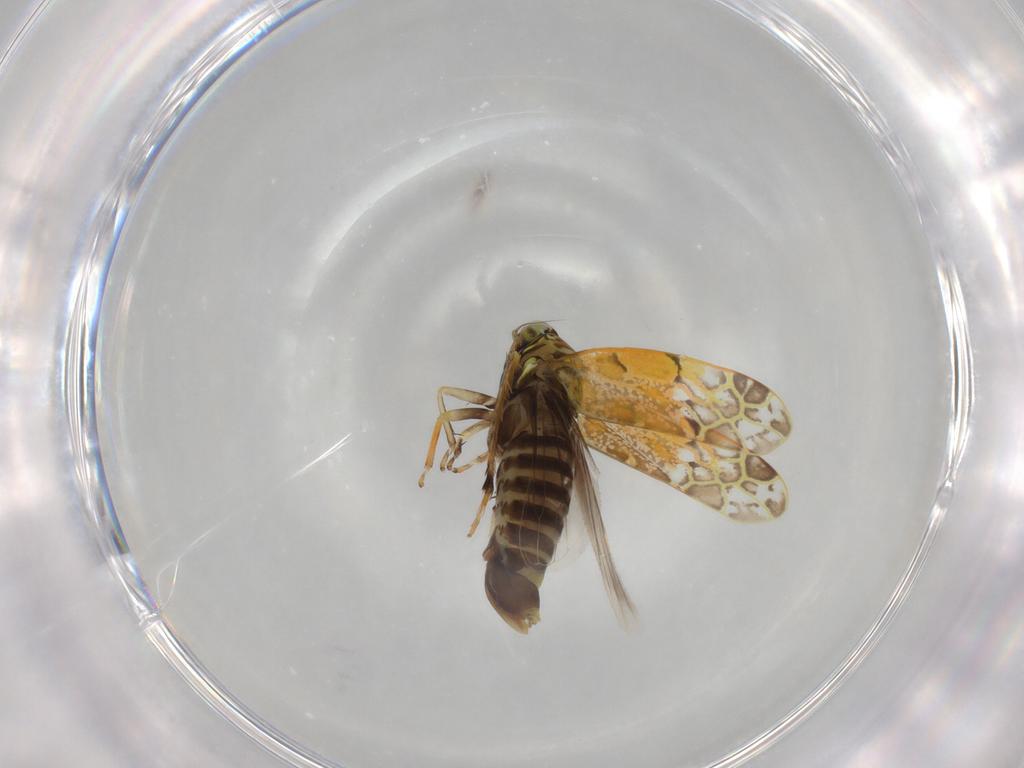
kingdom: Animalia
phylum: Arthropoda
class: Insecta
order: Hemiptera
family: Cicadellidae
